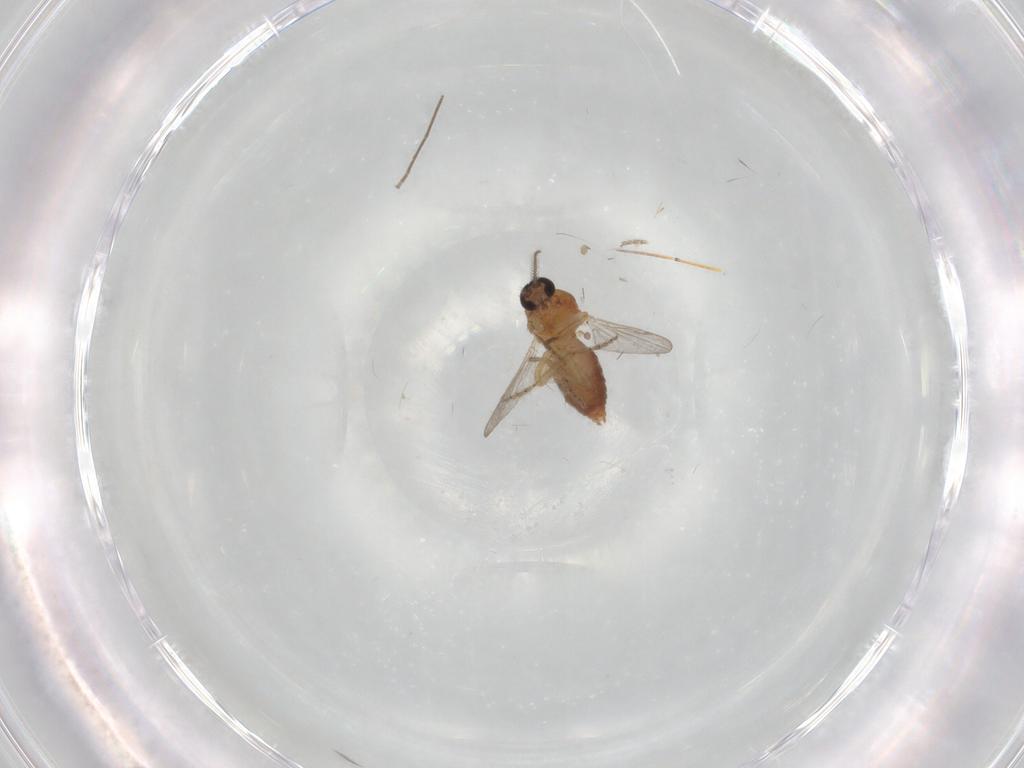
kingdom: Animalia
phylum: Arthropoda
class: Insecta
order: Diptera
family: Ceratopogonidae
